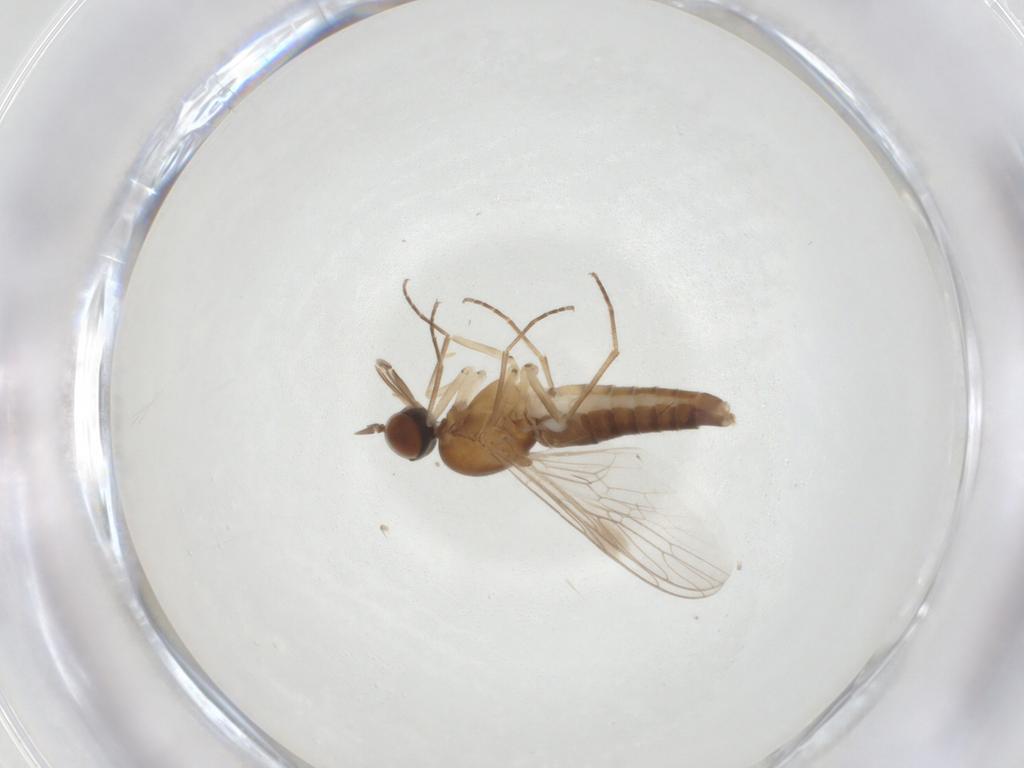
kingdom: Animalia
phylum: Arthropoda
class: Insecta
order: Diptera
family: Scenopinidae
